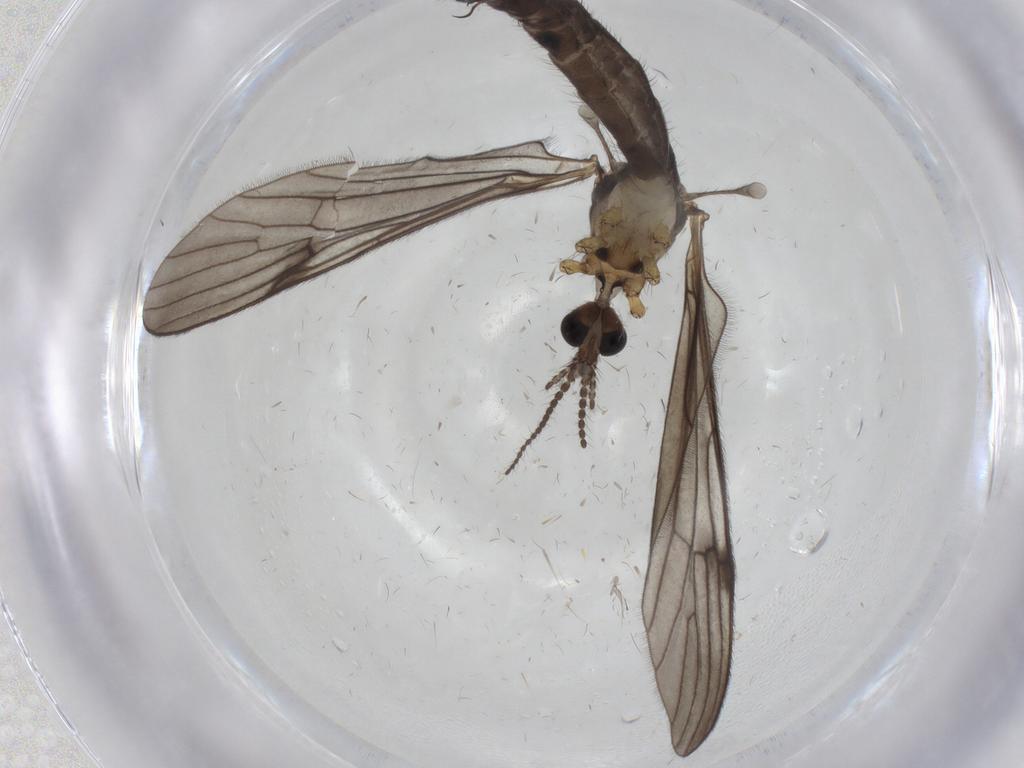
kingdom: Animalia
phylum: Arthropoda
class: Insecta
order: Diptera
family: Limoniidae
